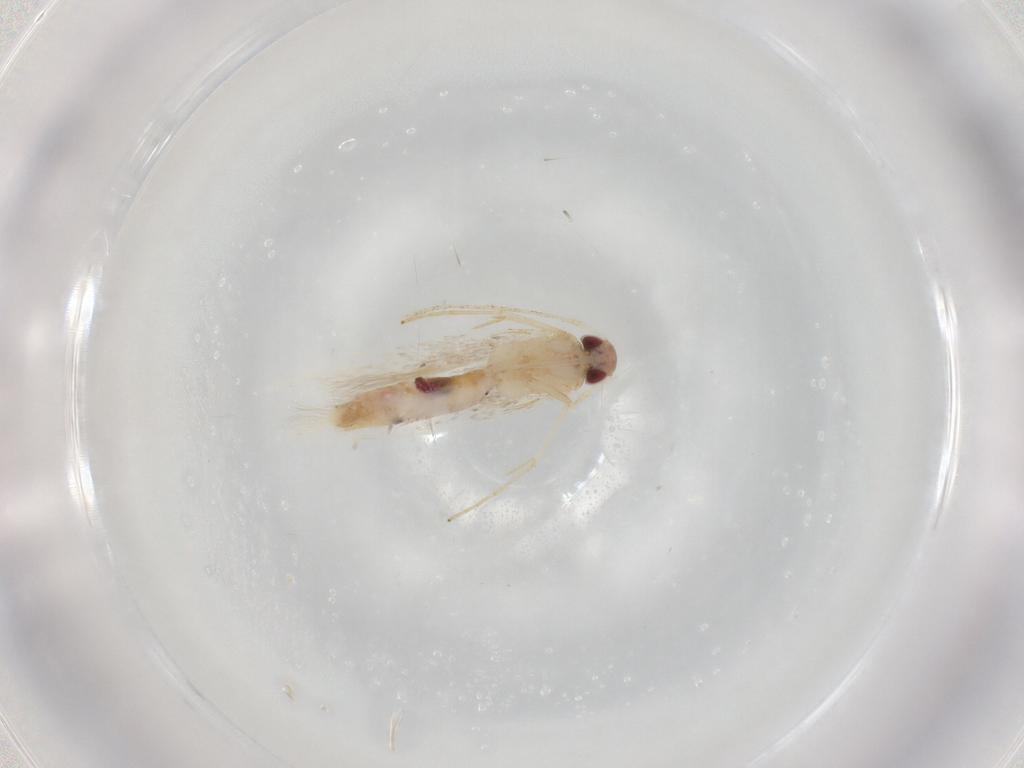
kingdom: Animalia
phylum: Arthropoda
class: Insecta
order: Lepidoptera
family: Cosmopterigidae
